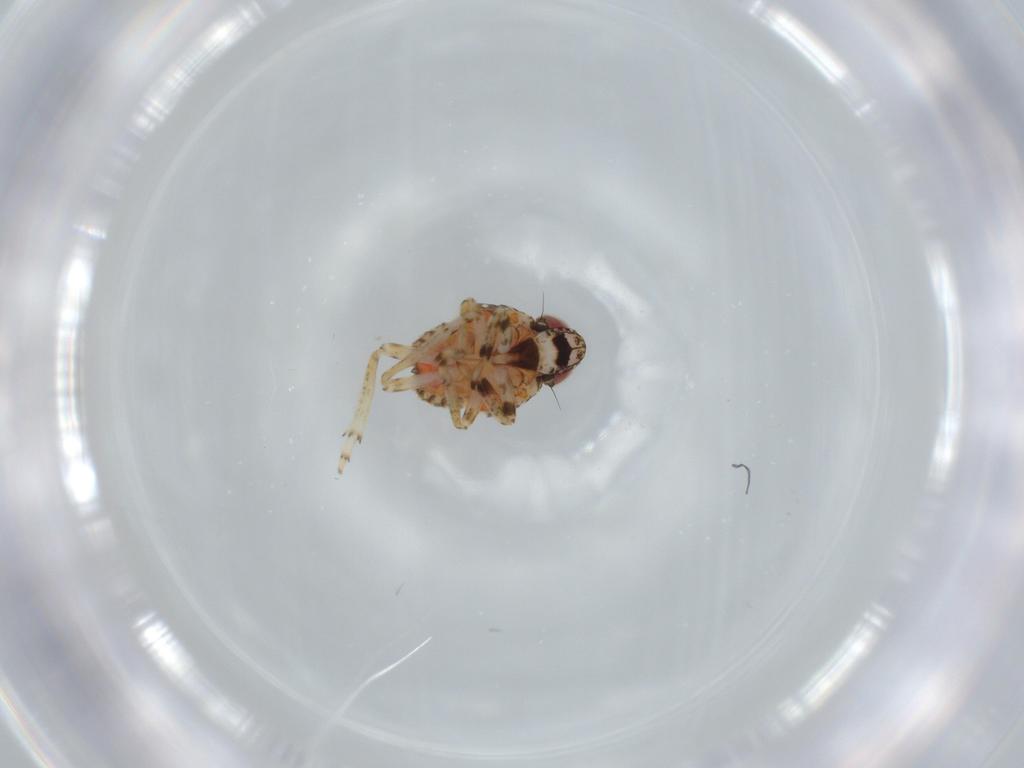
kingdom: Animalia
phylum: Arthropoda
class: Insecta
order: Hemiptera
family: Issidae
